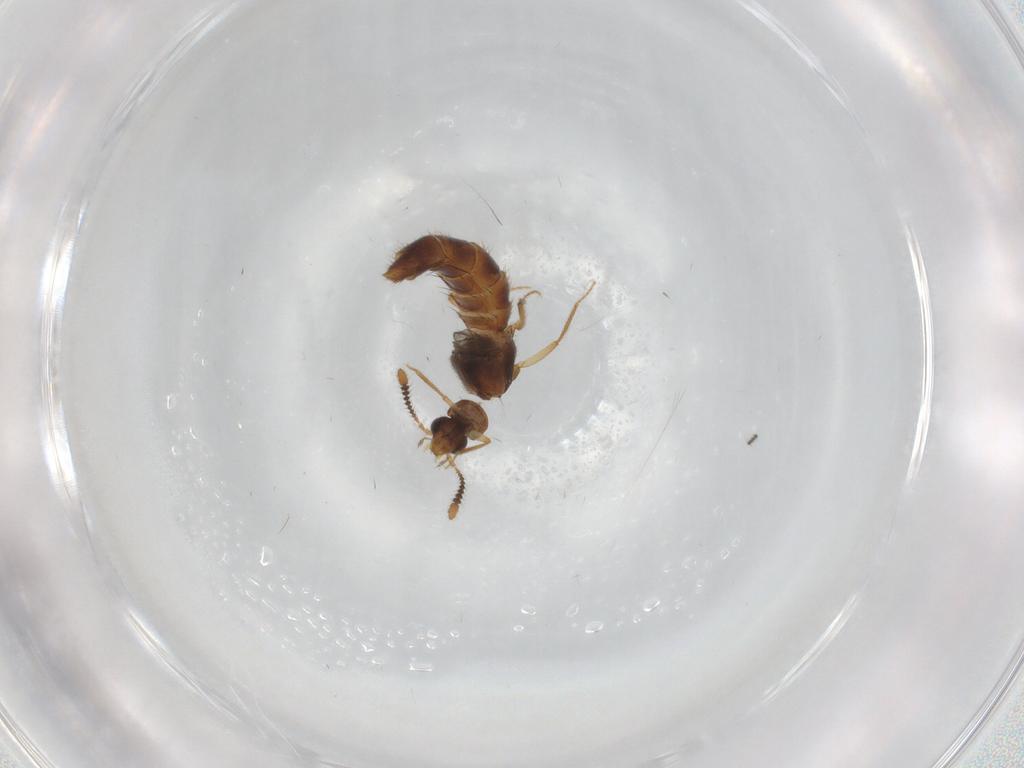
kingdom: Animalia
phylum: Arthropoda
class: Insecta
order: Coleoptera
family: Staphylinidae
